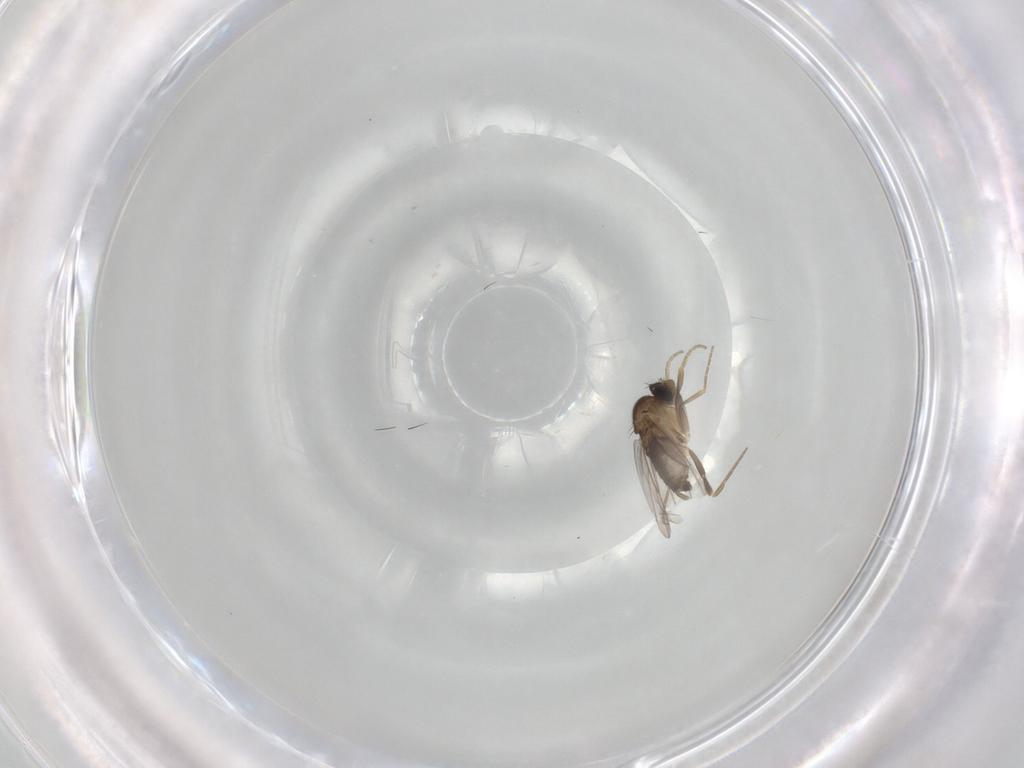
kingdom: Animalia
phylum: Arthropoda
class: Insecta
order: Diptera
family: Phoridae
